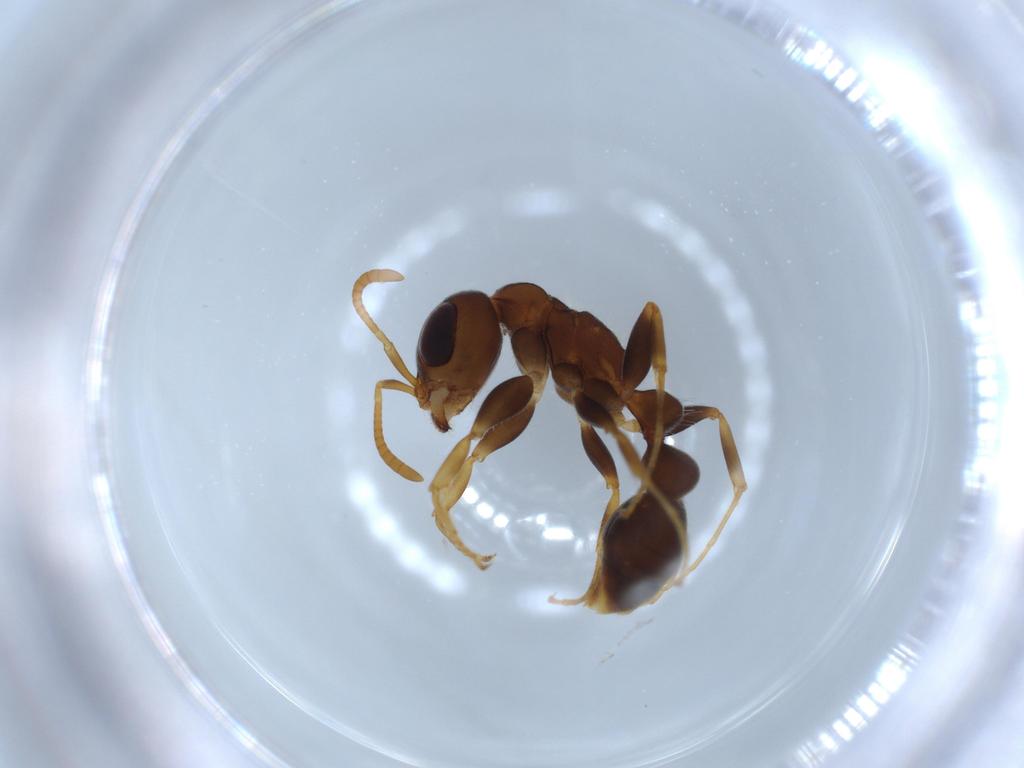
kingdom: Animalia
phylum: Arthropoda
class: Insecta
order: Hymenoptera
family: Formicidae
